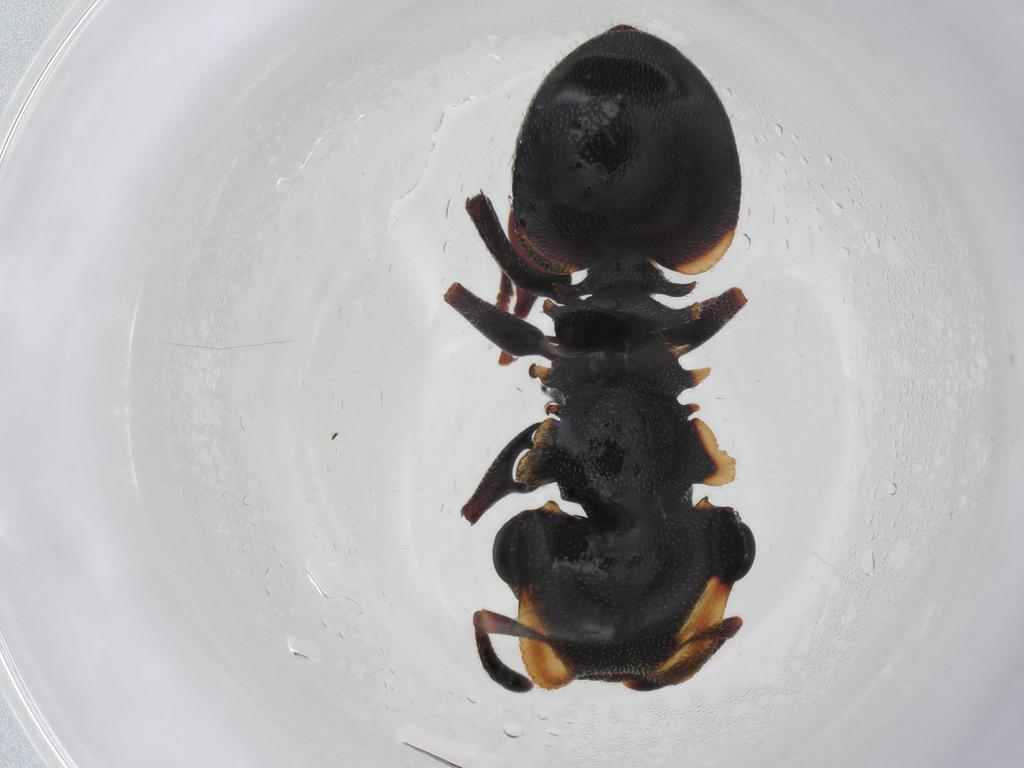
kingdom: Animalia
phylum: Arthropoda
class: Insecta
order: Hymenoptera
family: Formicidae
